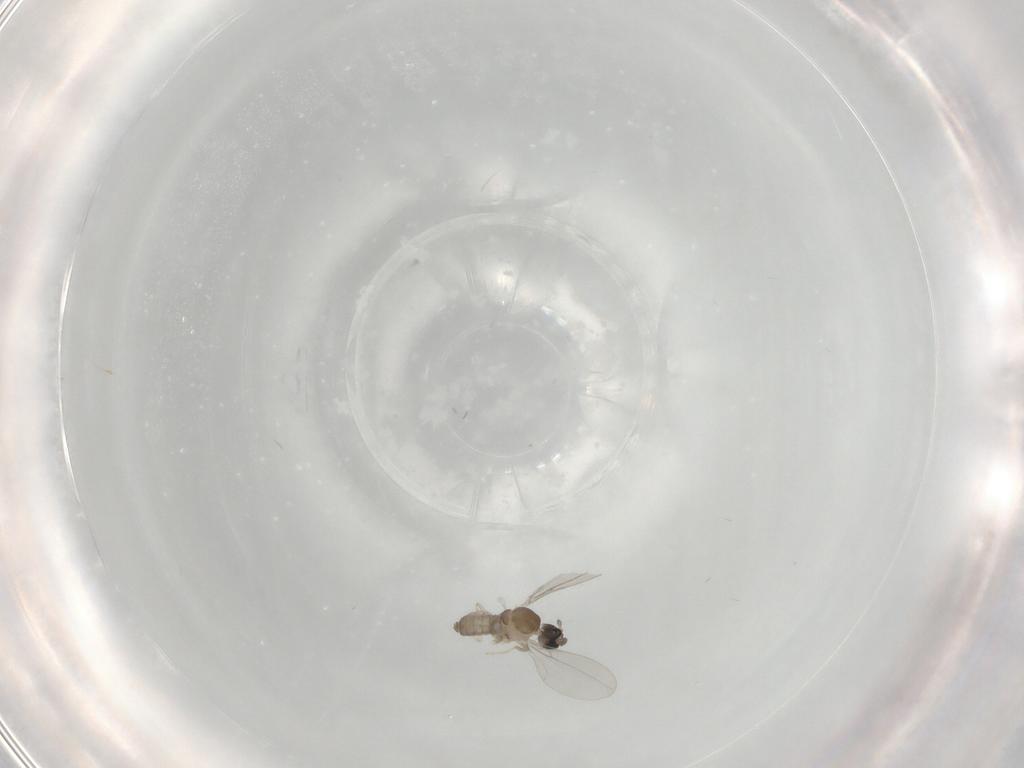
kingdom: Animalia
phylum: Arthropoda
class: Insecta
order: Diptera
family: Cecidomyiidae
